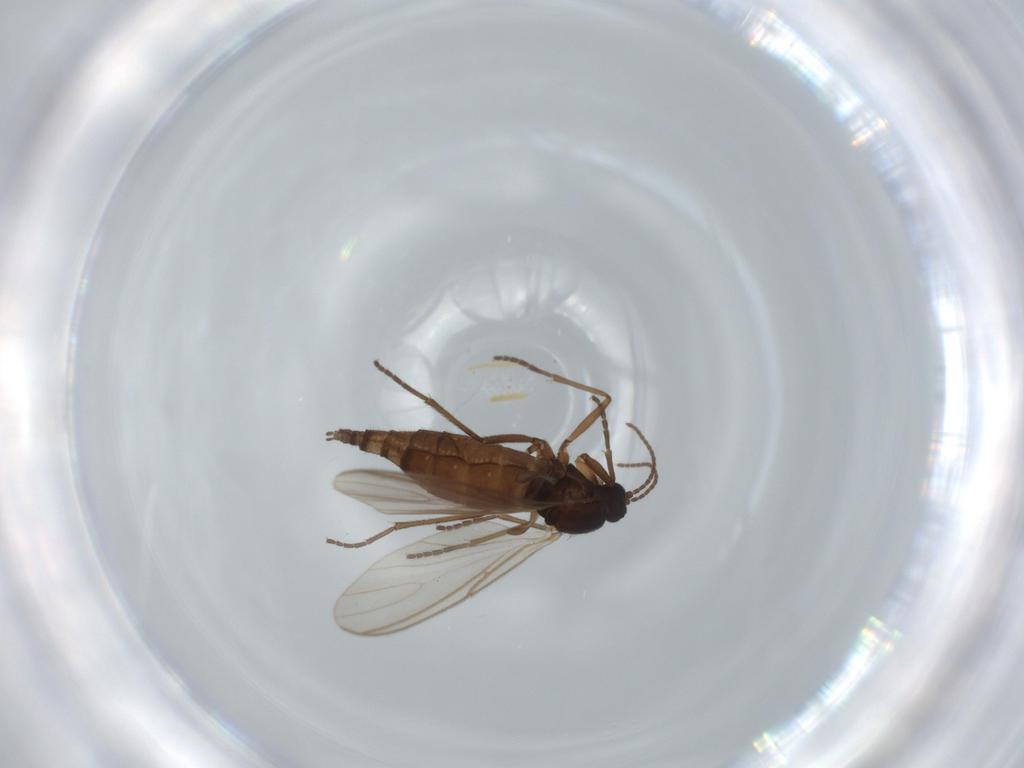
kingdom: Animalia
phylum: Arthropoda
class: Insecta
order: Diptera
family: Sciaridae
